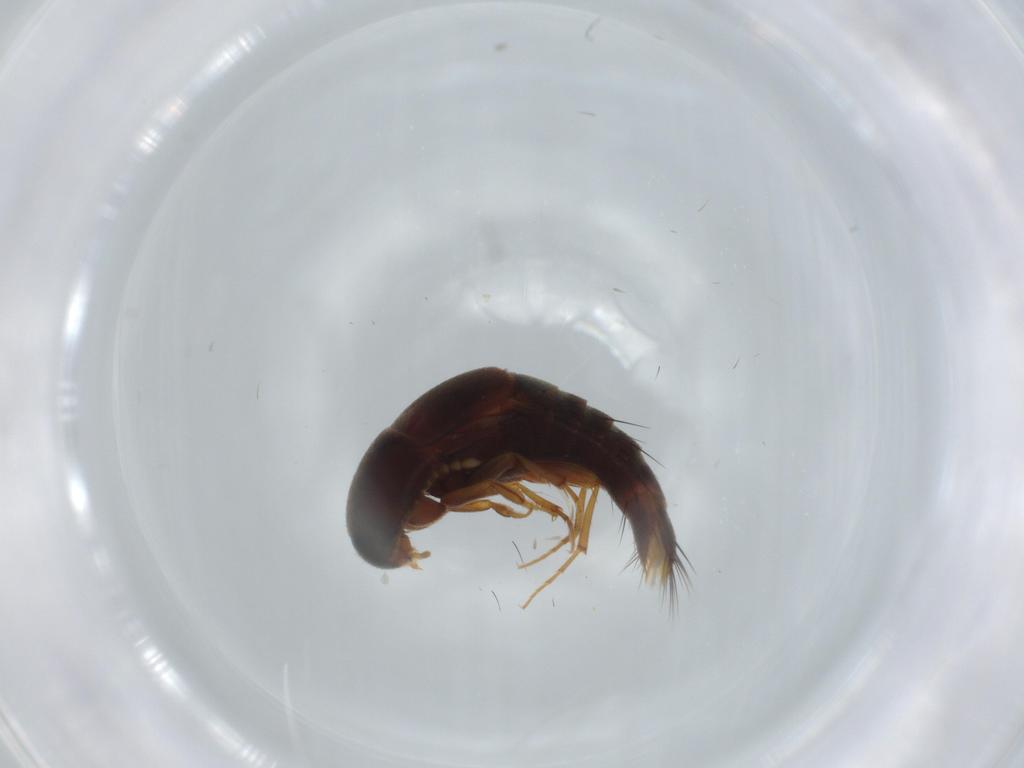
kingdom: Animalia
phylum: Arthropoda
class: Insecta
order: Coleoptera
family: Staphylinidae
